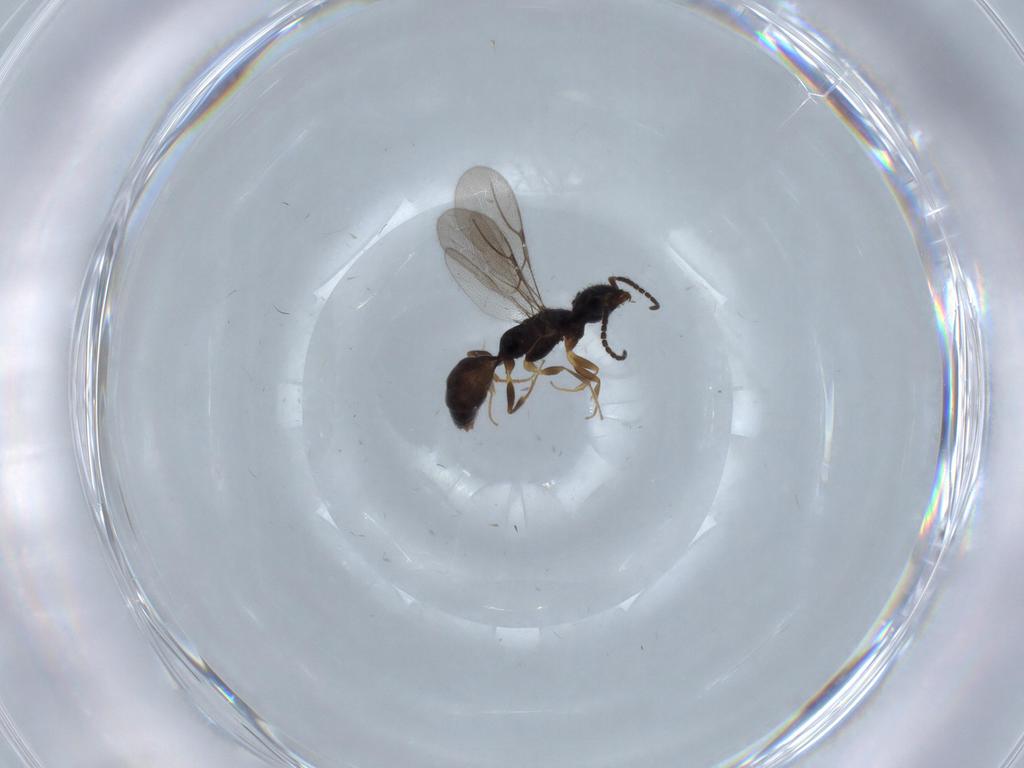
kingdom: Animalia
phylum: Arthropoda
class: Insecta
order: Hymenoptera
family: Bethylidae
